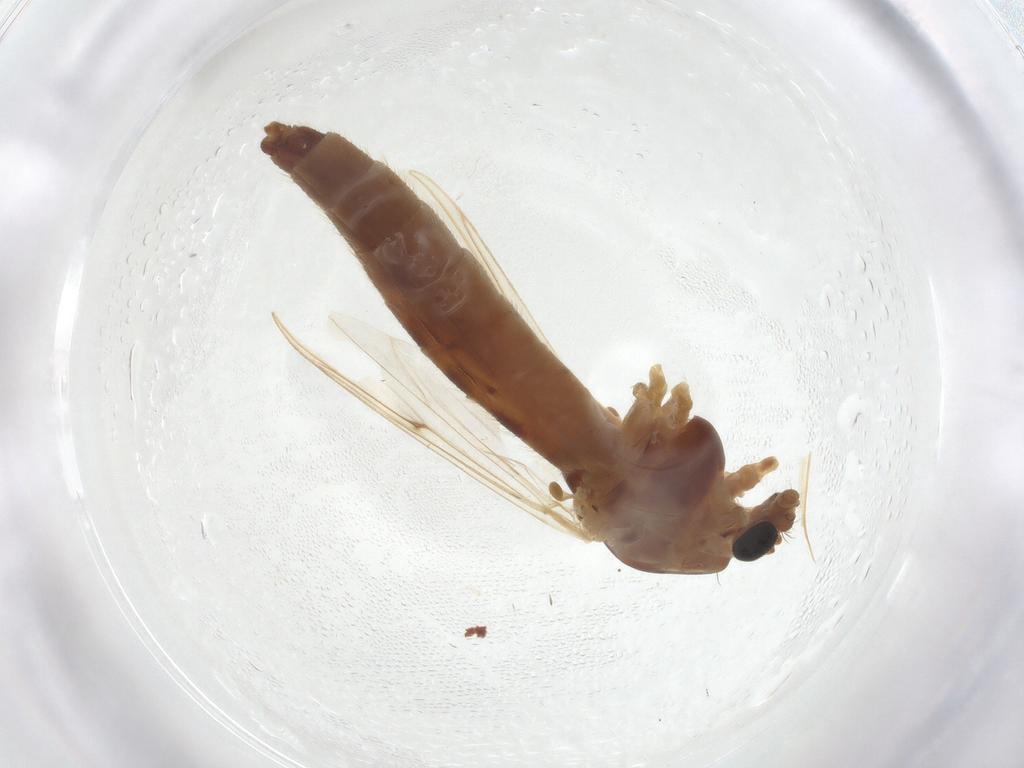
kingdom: Animalia
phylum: Arthropoda
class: Insecta
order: Diptera
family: Chironomidae
